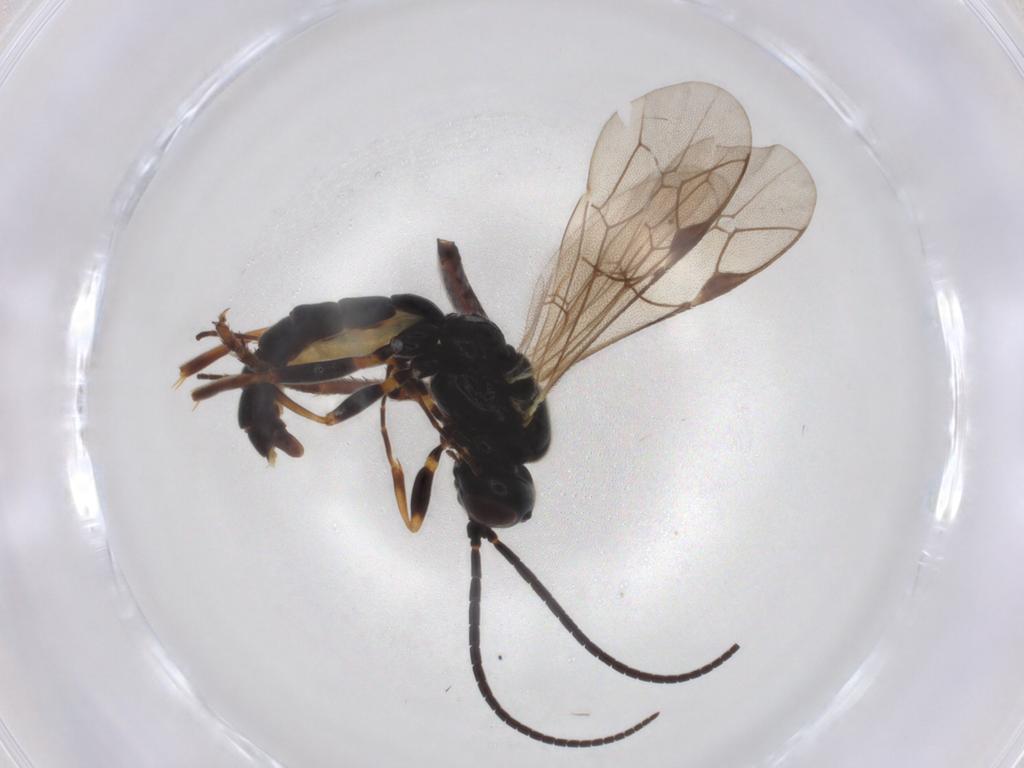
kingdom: Animalia
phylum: Arthropoda
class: Insecta
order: Hymenoptera
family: Ichneumonidae
